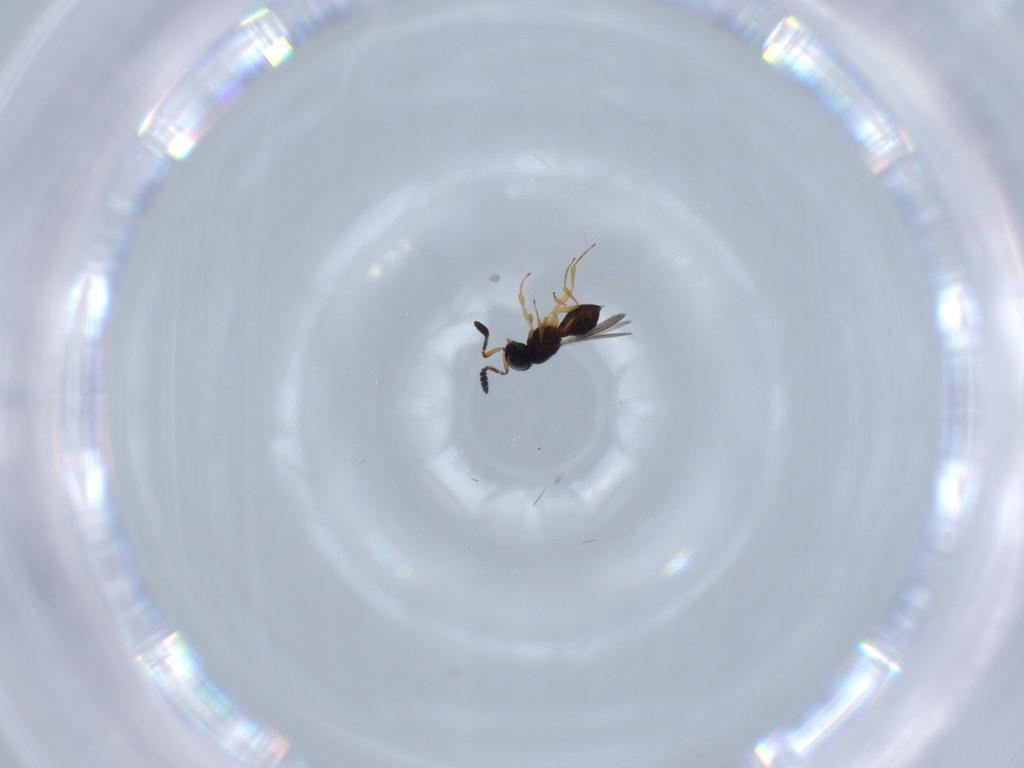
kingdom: Animalia
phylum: Arthropoda
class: Insecta
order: Hymenoptera
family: Scelionidae
